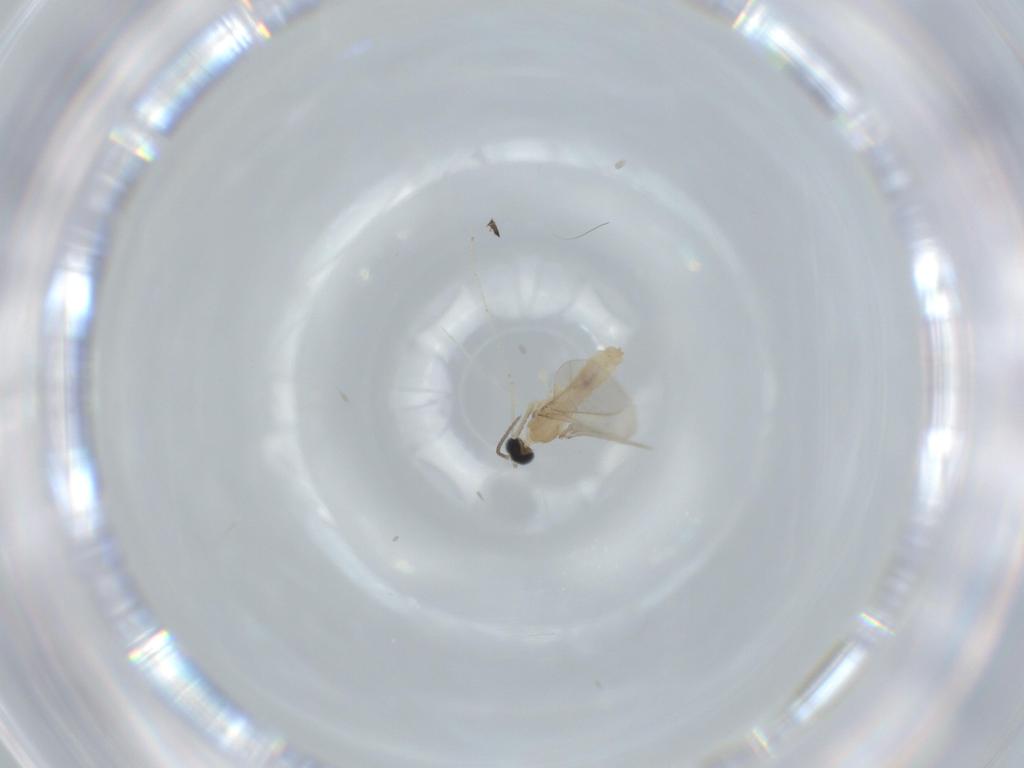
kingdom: Animalia
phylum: Arthropoda
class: Insecta
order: Diptera
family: Cecidomyiidae
